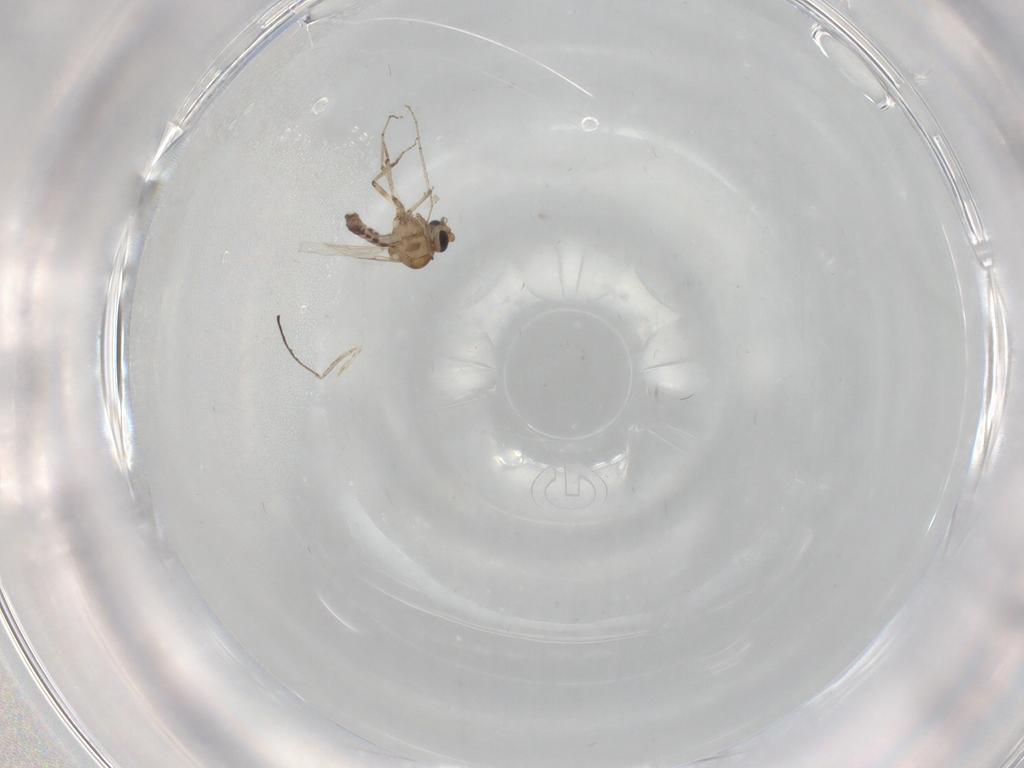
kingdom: Animalia
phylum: Arthropoda
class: Insecta
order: Diptera
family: Ceratopogonidae
